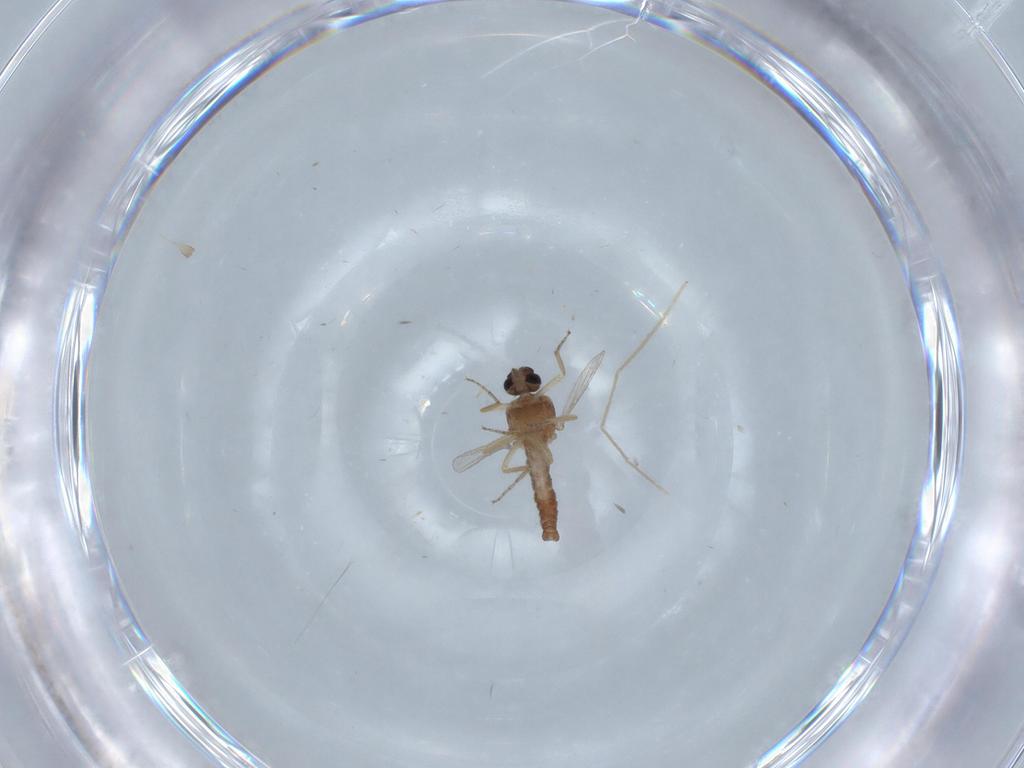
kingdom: Animalia
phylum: Arthropoda
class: Insecta
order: Diptera
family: Ceratopogonidae
